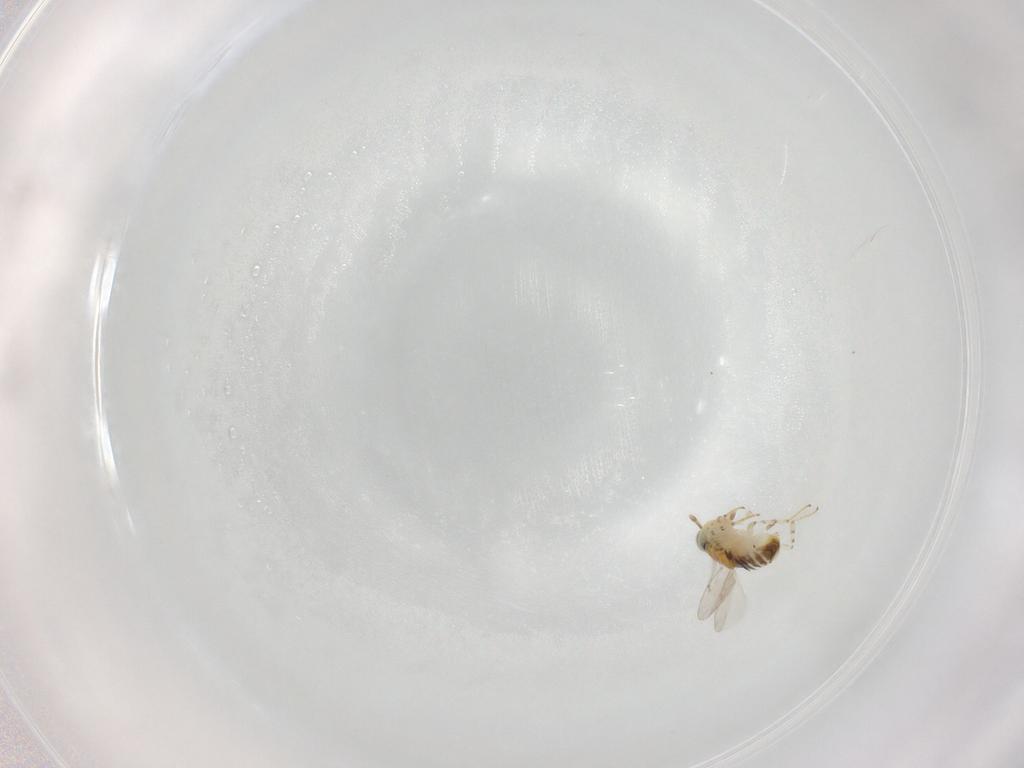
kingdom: Animalia
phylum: Arthropoda
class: Insecta
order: Hymenoptera
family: Encyrtidae
